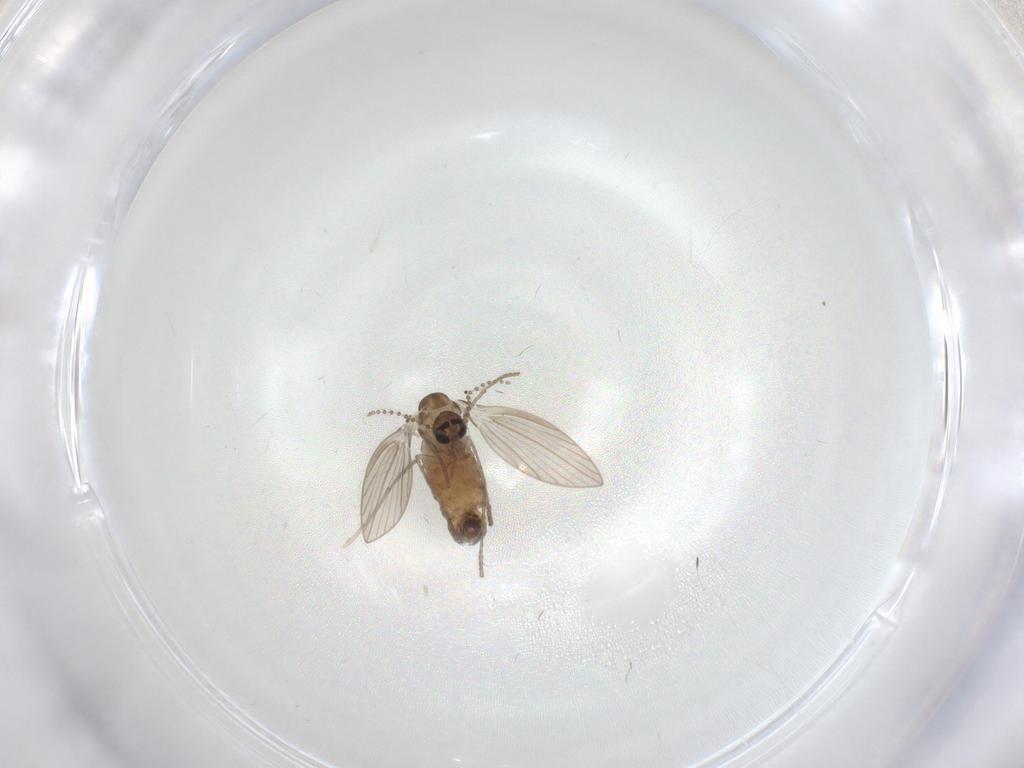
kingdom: Animalia
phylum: Arthropoda
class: Insecta
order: Diptera
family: Psychodidae
